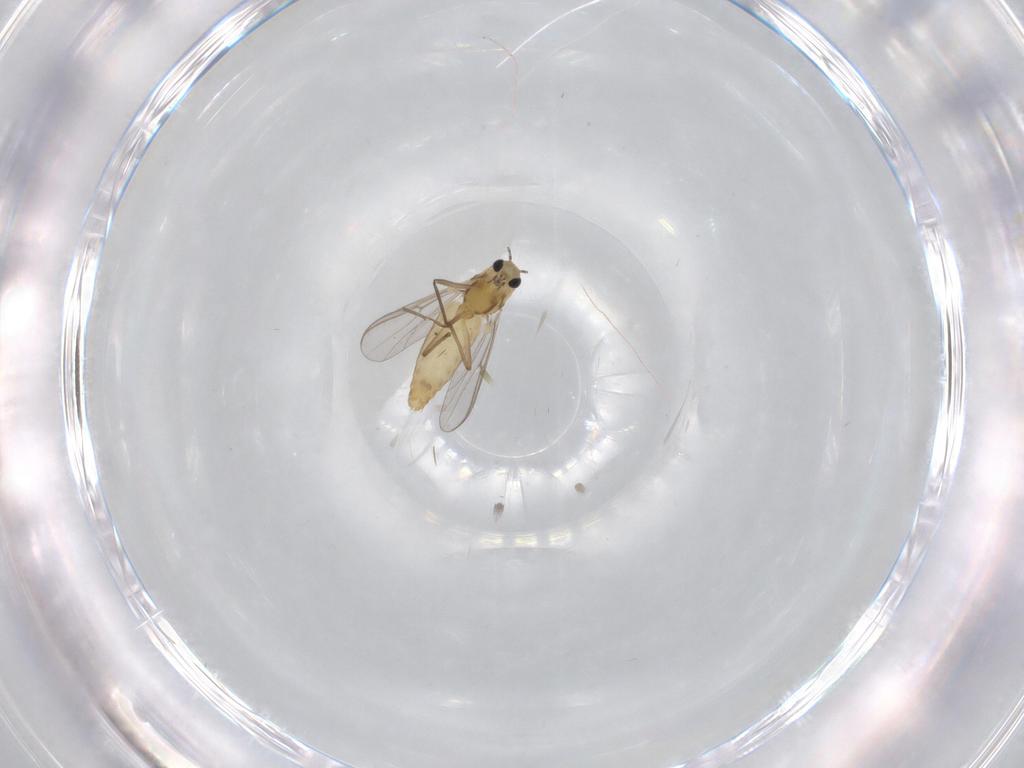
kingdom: Animalia
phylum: Arthropoda
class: Insecta
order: Diptera
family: Chironomidae
